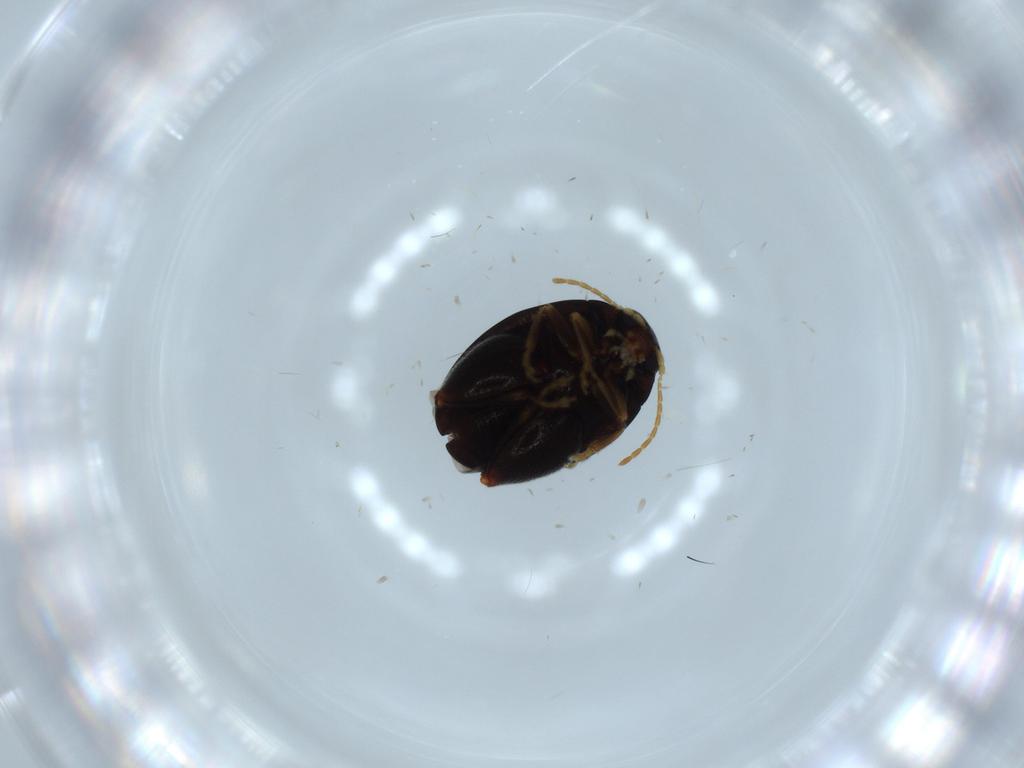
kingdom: Animalia
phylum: Arthropoda
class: Insecta
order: Coleoptera
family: Chrysomelidae
